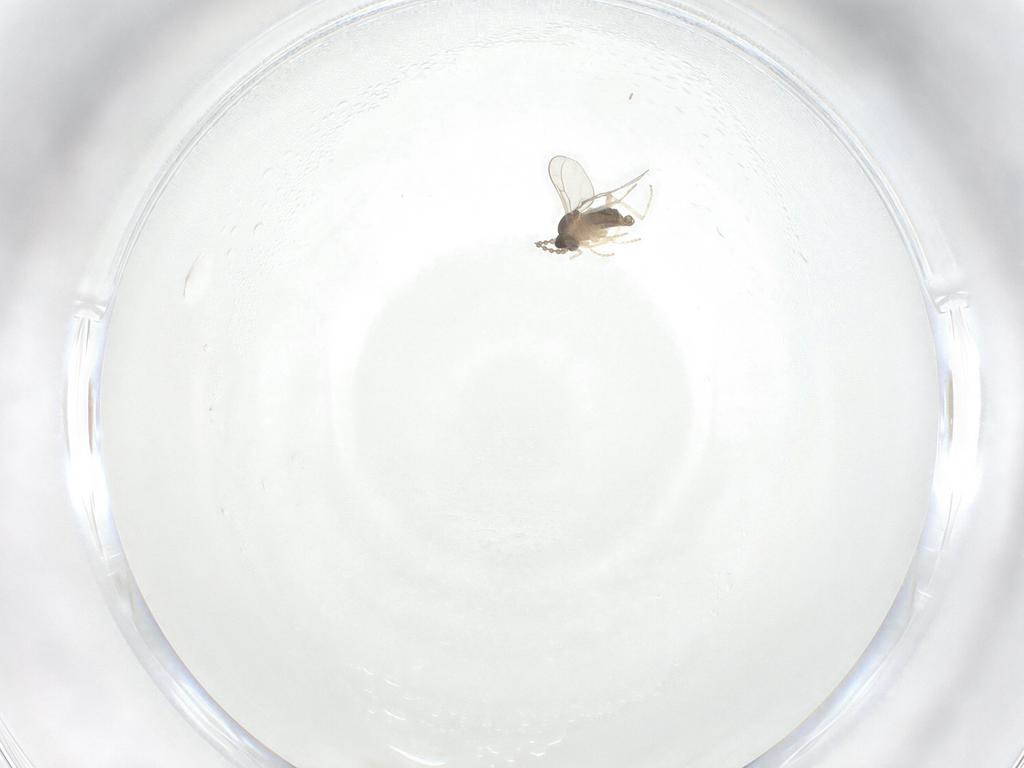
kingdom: Animalia
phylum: Arthropoda
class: Insecta
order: Diptera
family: Cecidomyiidae
